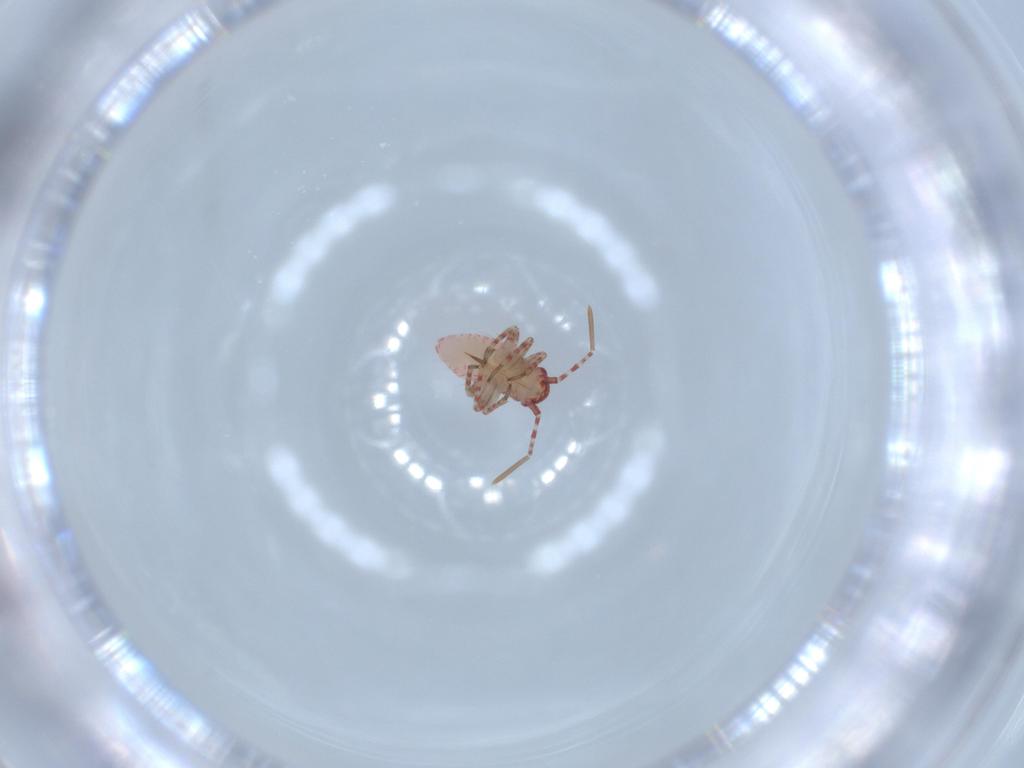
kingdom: Animalia
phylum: Arthropoda
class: Insecta
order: Hemiptera
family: Miridae
